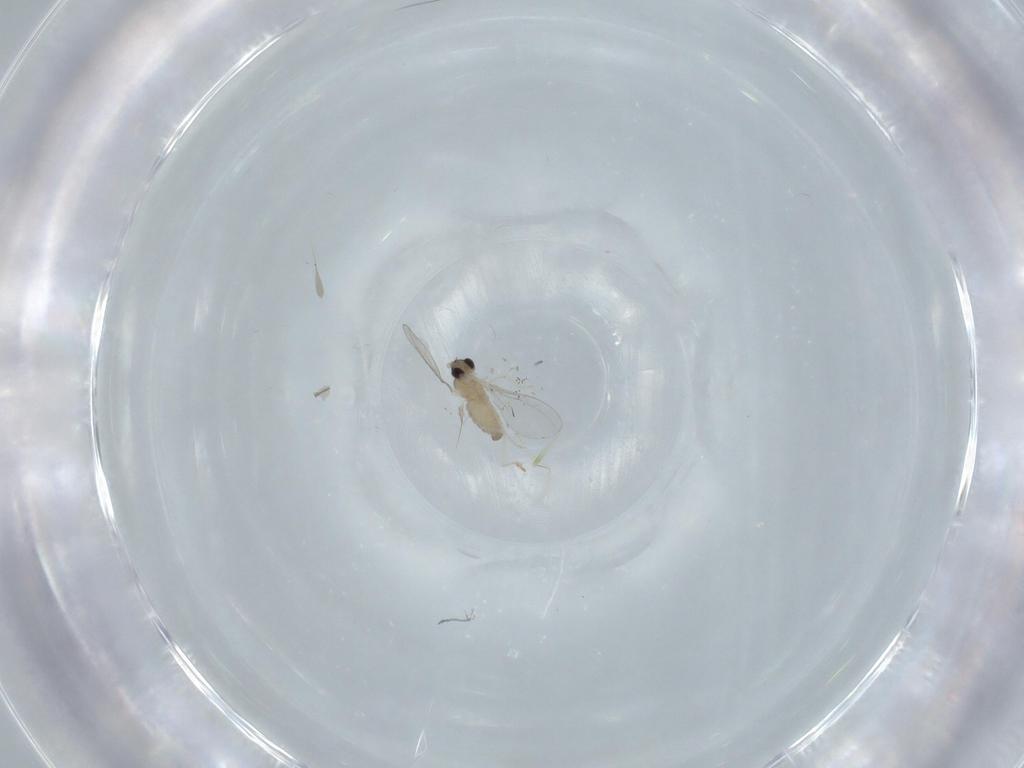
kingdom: Animalia
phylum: Arthropoda
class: Insecta
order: Diptera
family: Cecidomyiidae
